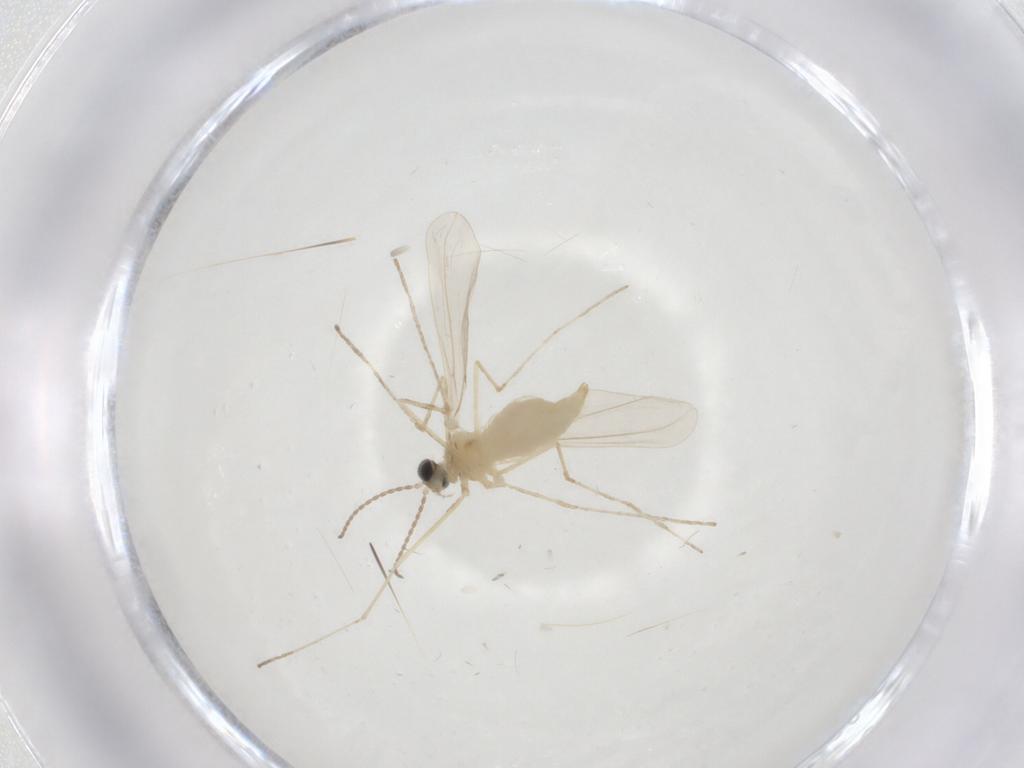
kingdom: Animalia
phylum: Arthropoda
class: Insecta
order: Diptera
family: Cecidomyiidae
